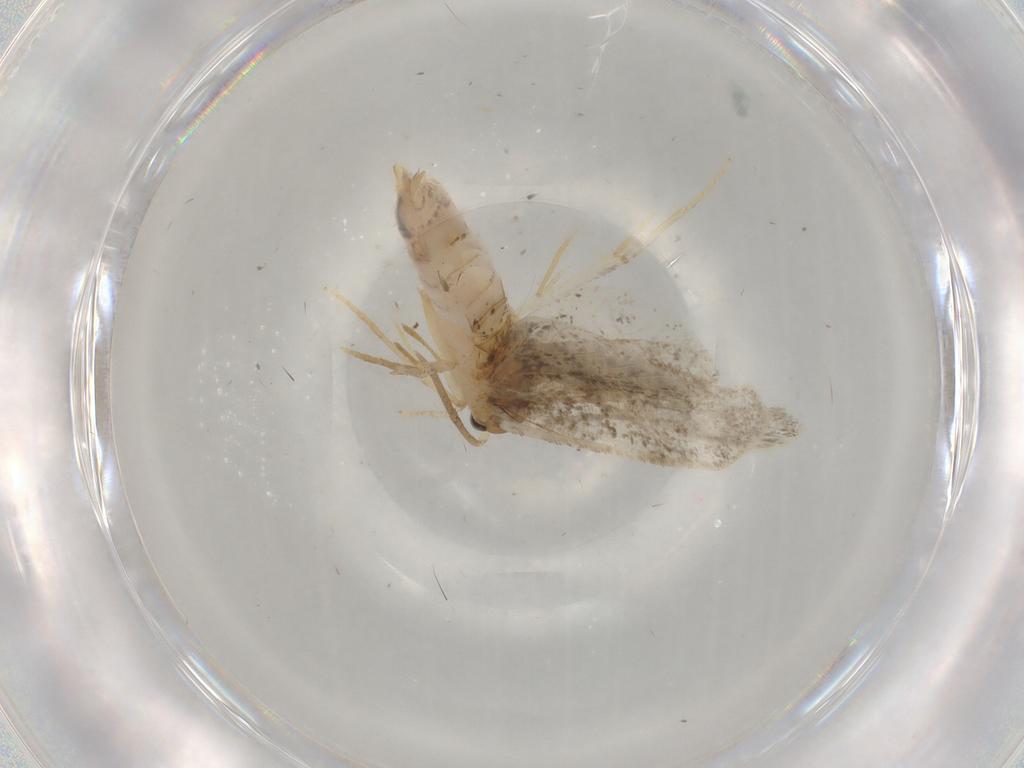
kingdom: Animalia
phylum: Arthropoda
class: Insecta
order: Lepidoptera
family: Dryadaulidae
